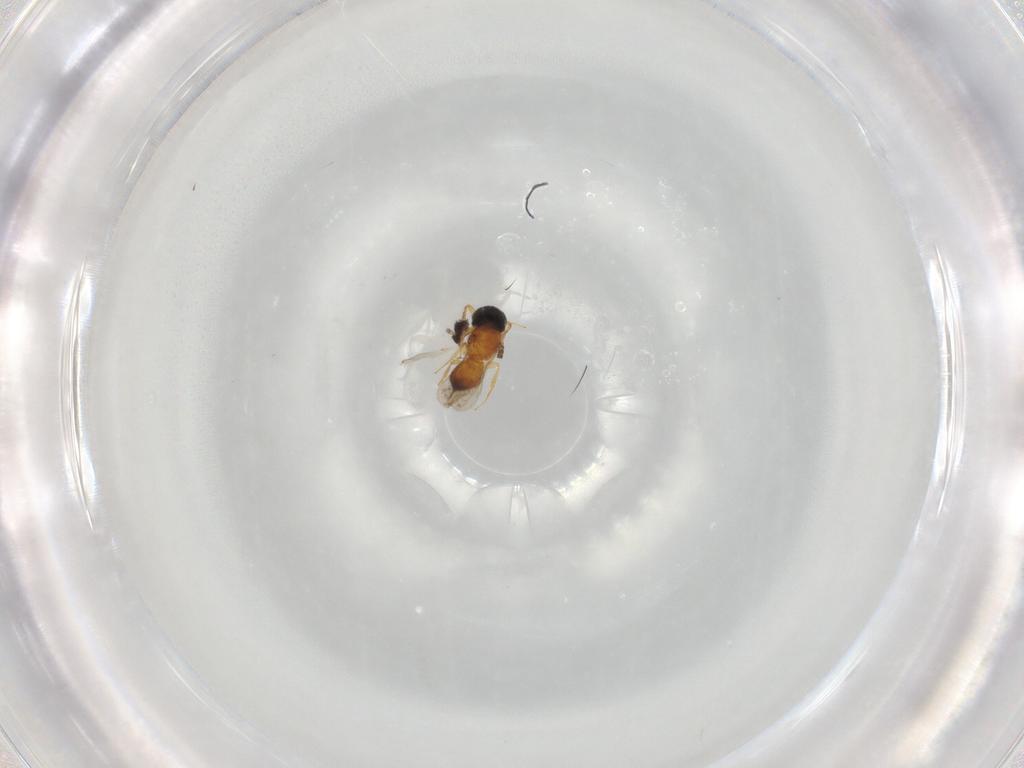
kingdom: Animalia
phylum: Arthropoda
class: Insecta
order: Hymenoptera
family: Scelionidae
